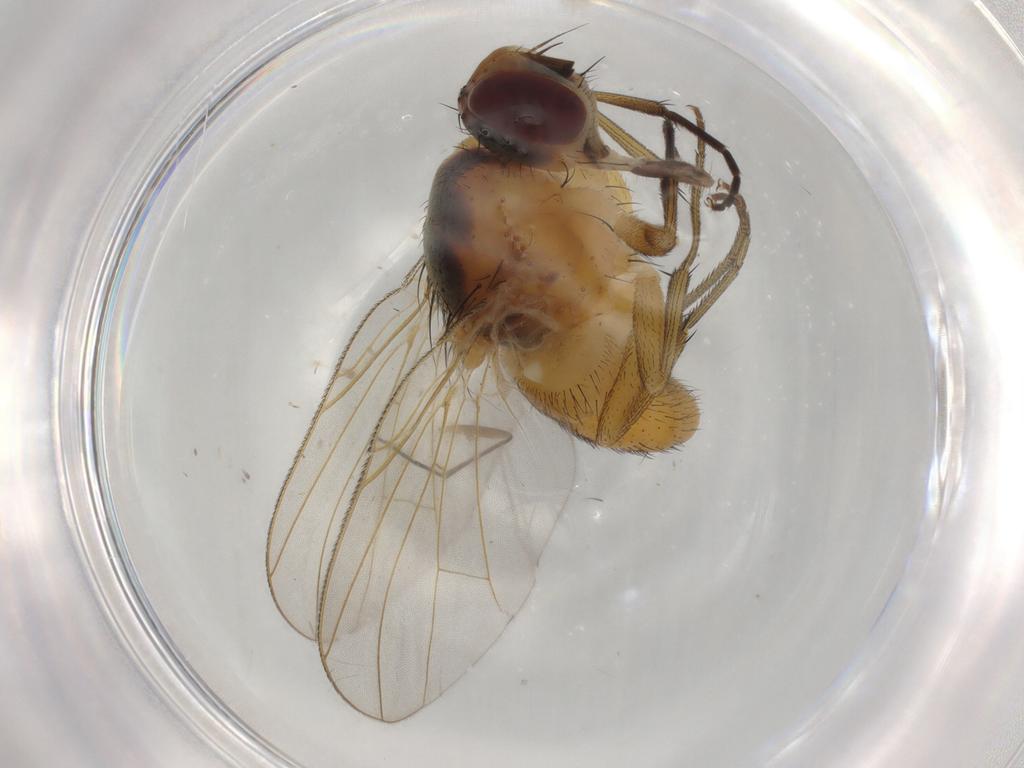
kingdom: Animalia
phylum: Arthropoda
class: Insecta
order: Diptera
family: Muscidae
